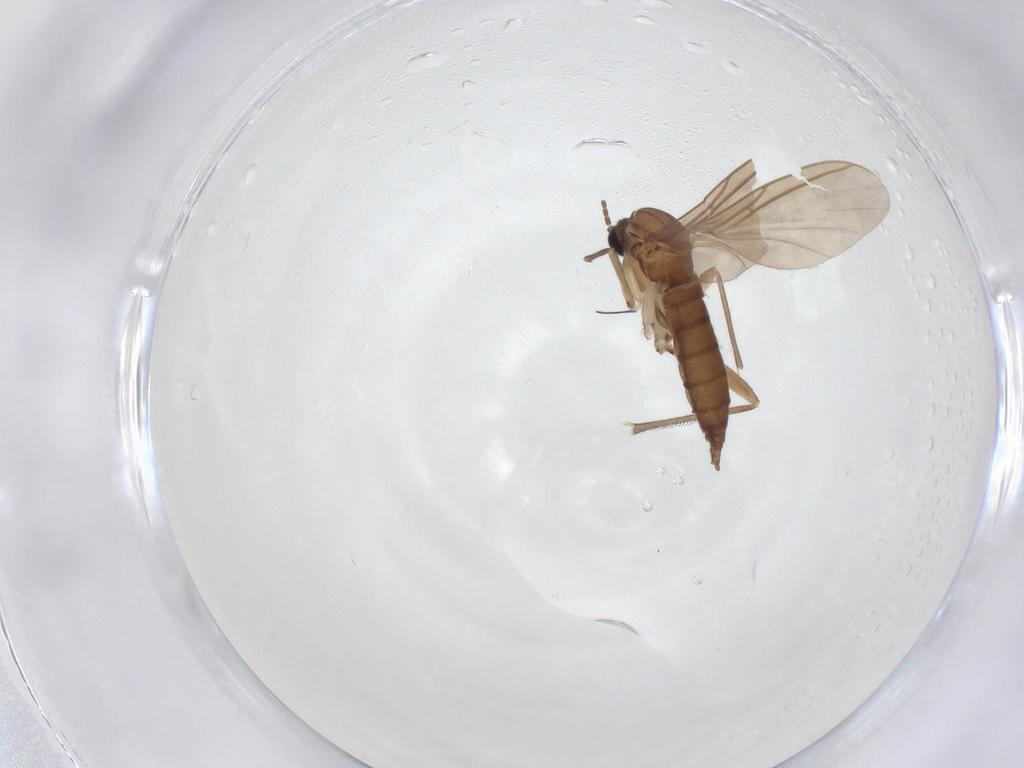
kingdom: Animalia
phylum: Arthropoda
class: Insecta
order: Diptera
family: Sciaridae
